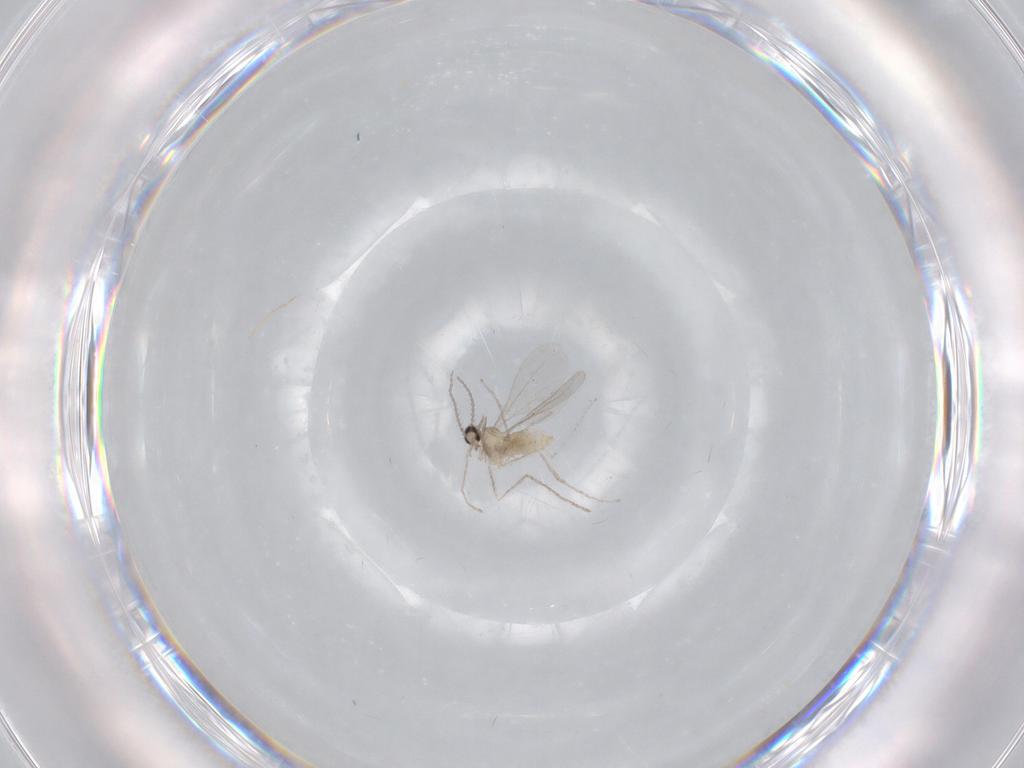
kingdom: Animalia
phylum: Arthropoda
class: Insecta
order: Diptera
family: Cecidomyiidae
